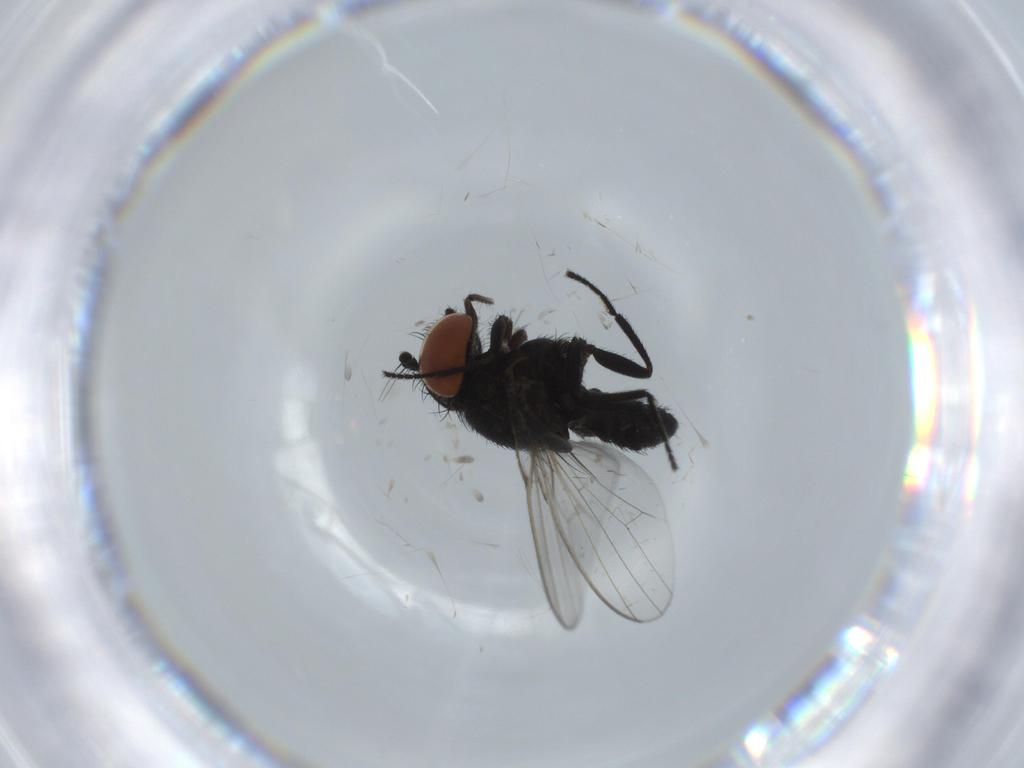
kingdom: Animalia
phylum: Arthropoda
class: Insecta
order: Diptera
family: Milichiidae
